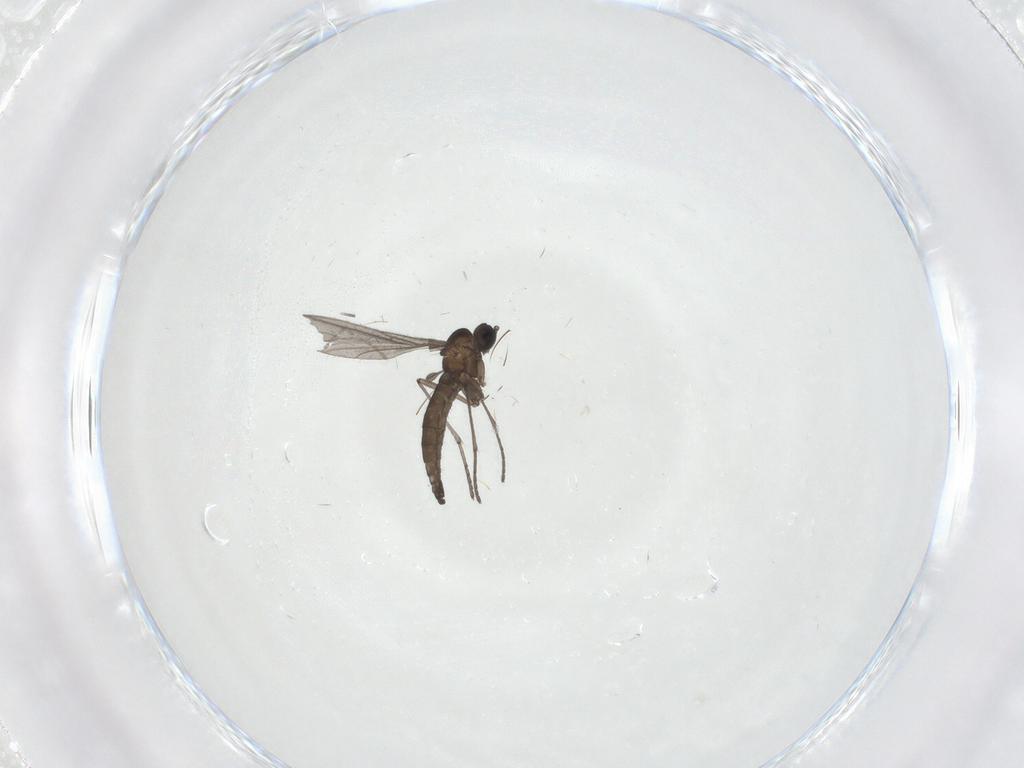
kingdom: Animalia
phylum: Arthropoda
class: Insecta
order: Diptera
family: Sciaridae
